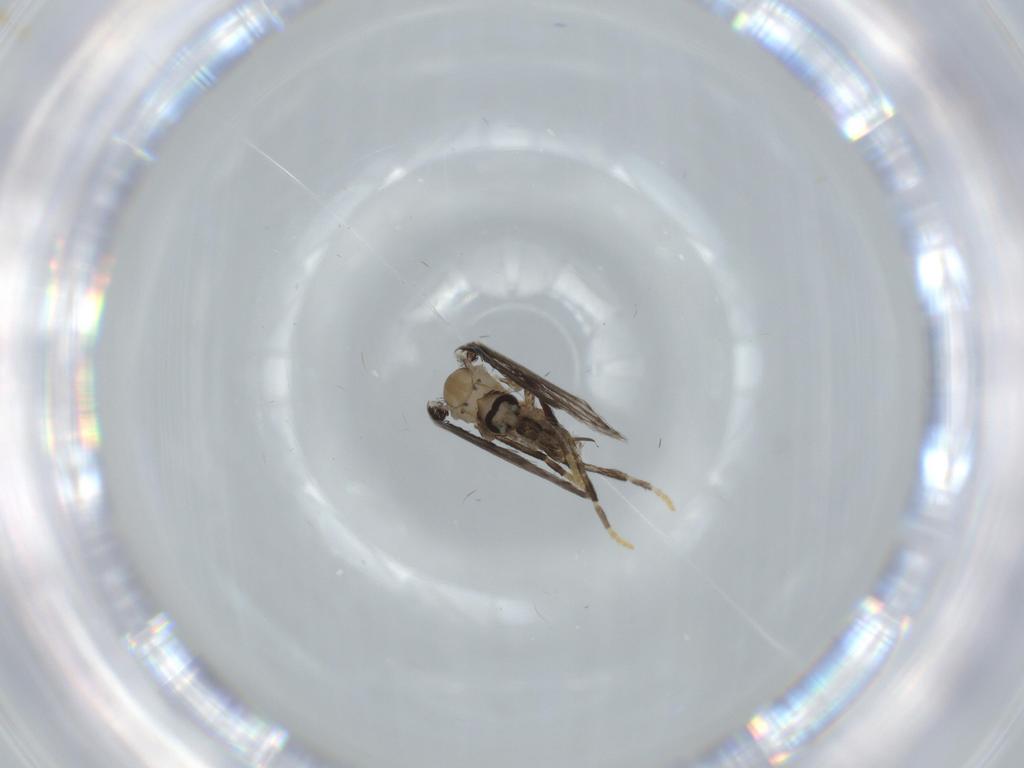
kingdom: Animalia
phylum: Arthropoda
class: Insecta
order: Diptera
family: Ceratopogonidae
